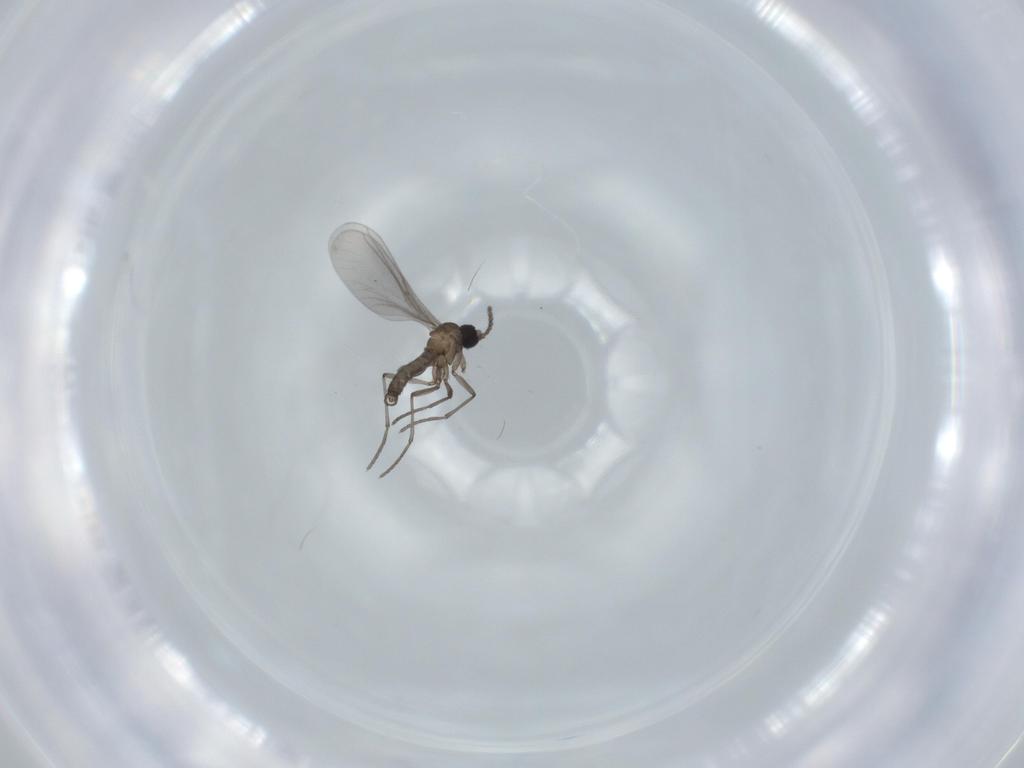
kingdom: Animalia
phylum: Arthropoda
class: Insecta
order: Diptera
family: Sciaridae
